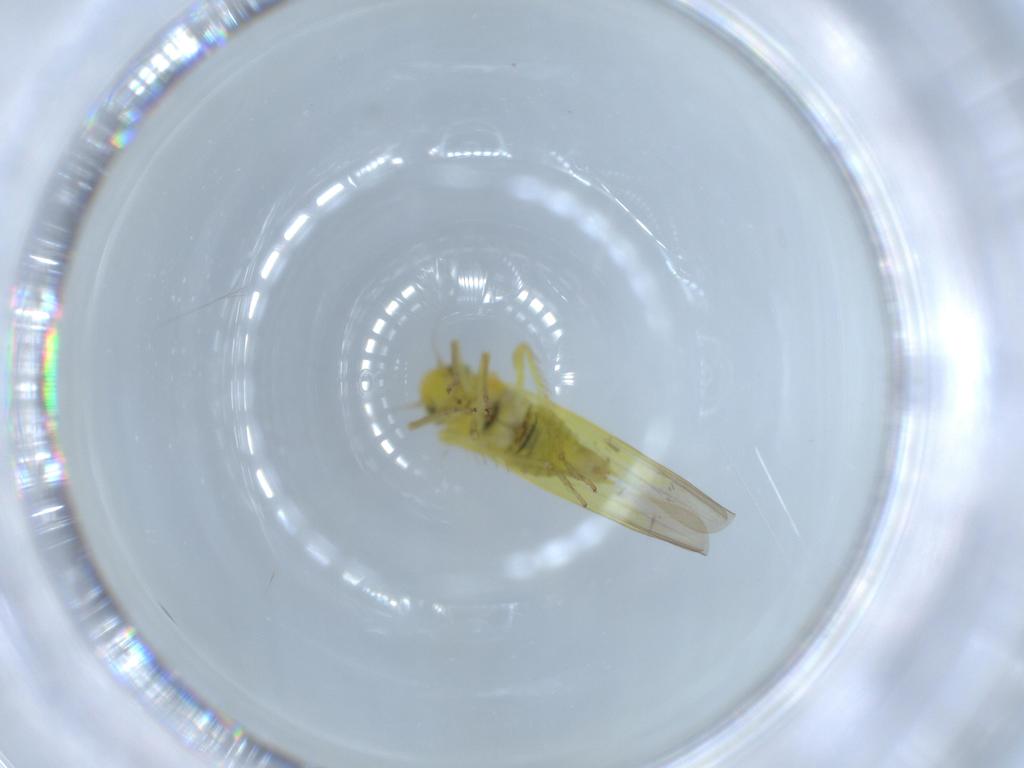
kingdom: Animalia
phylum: Arthropoda
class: Insecta
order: Hemiptera
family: Cicadellidae
